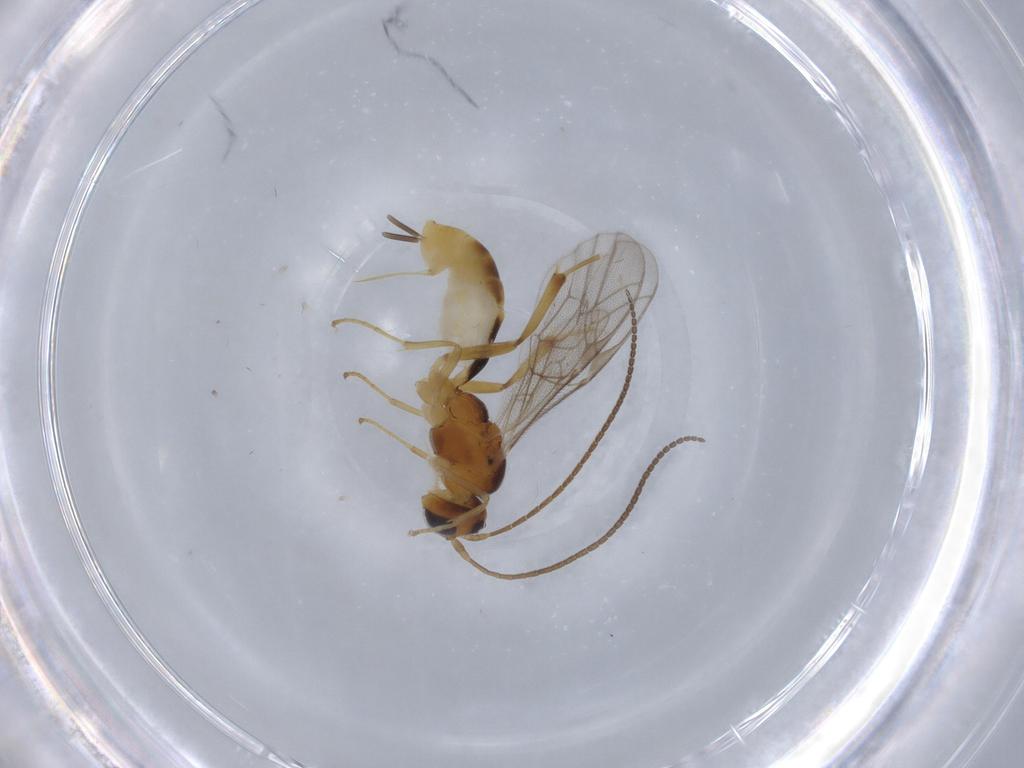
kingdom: Animalia
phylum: Arthropoda
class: Insecta
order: Hymenoptera
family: Ichneumonidae
